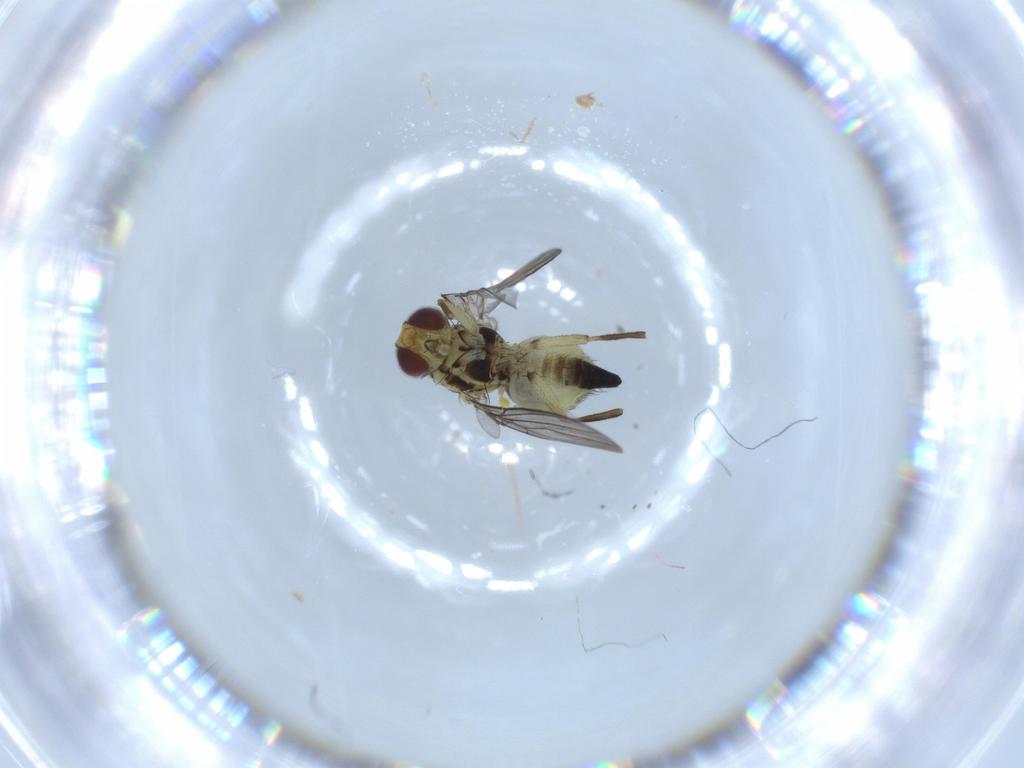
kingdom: Animalia
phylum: Arthropoda
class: Insecta
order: Diptera
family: Agromyzidae
